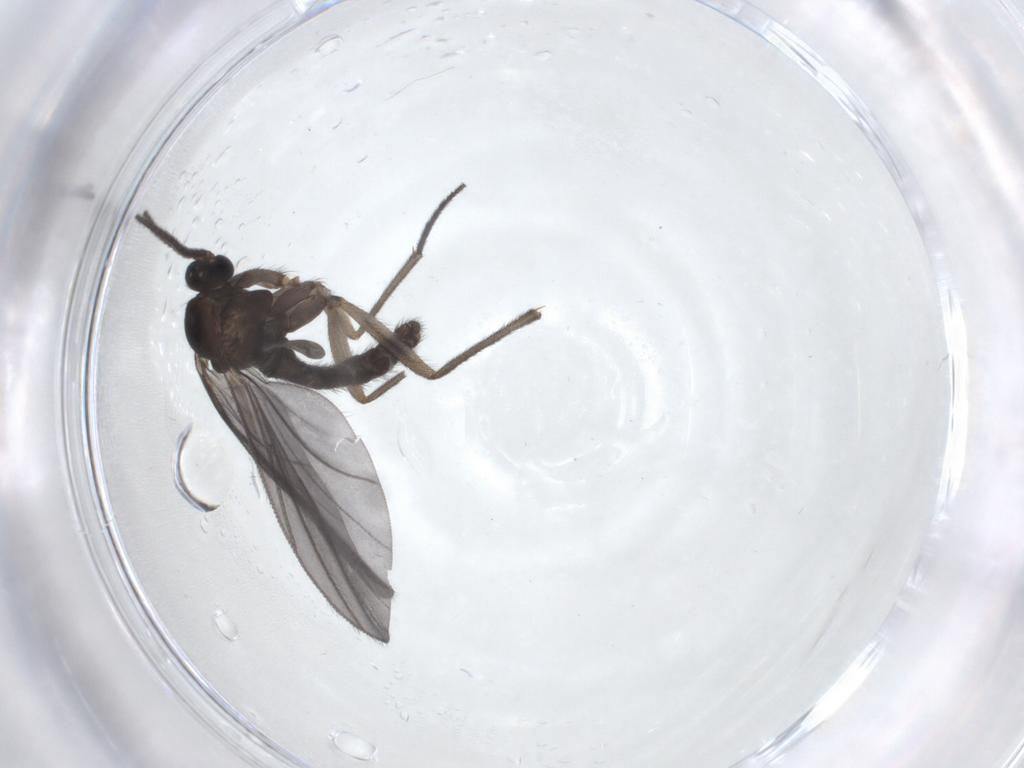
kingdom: Animalia
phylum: Arthropoda
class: Insecta
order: Diptera
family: Sciaridae
